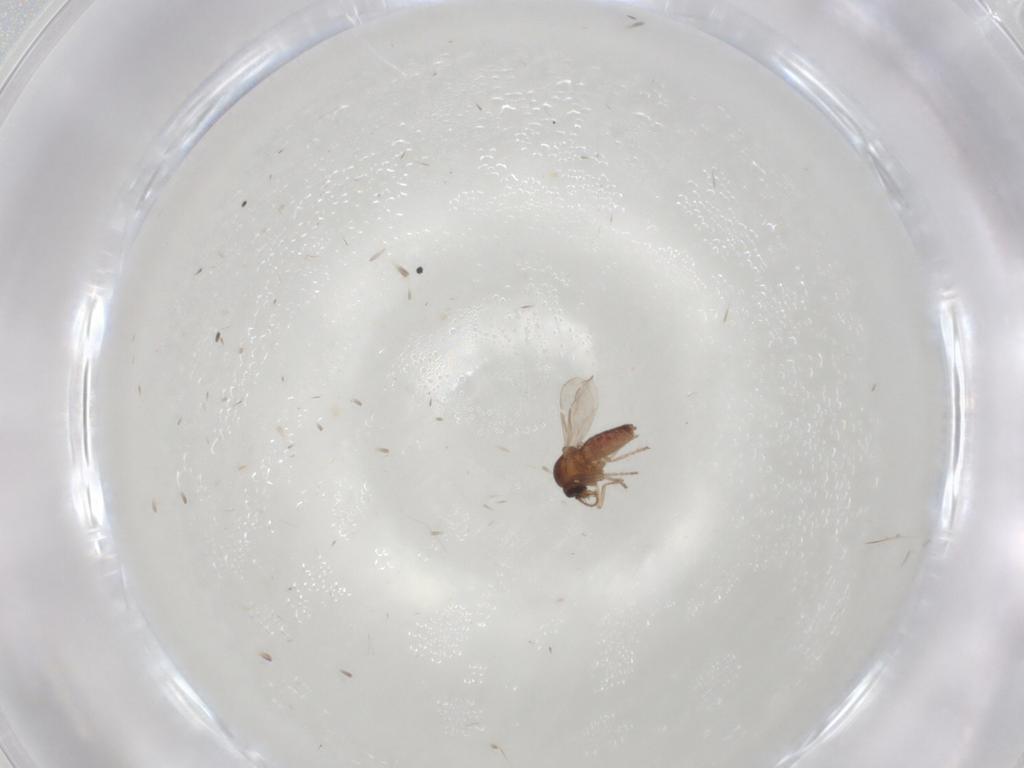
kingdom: Animalia
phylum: Arthropoda
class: Insecta
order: Diptera
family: Ceratopogonidae
